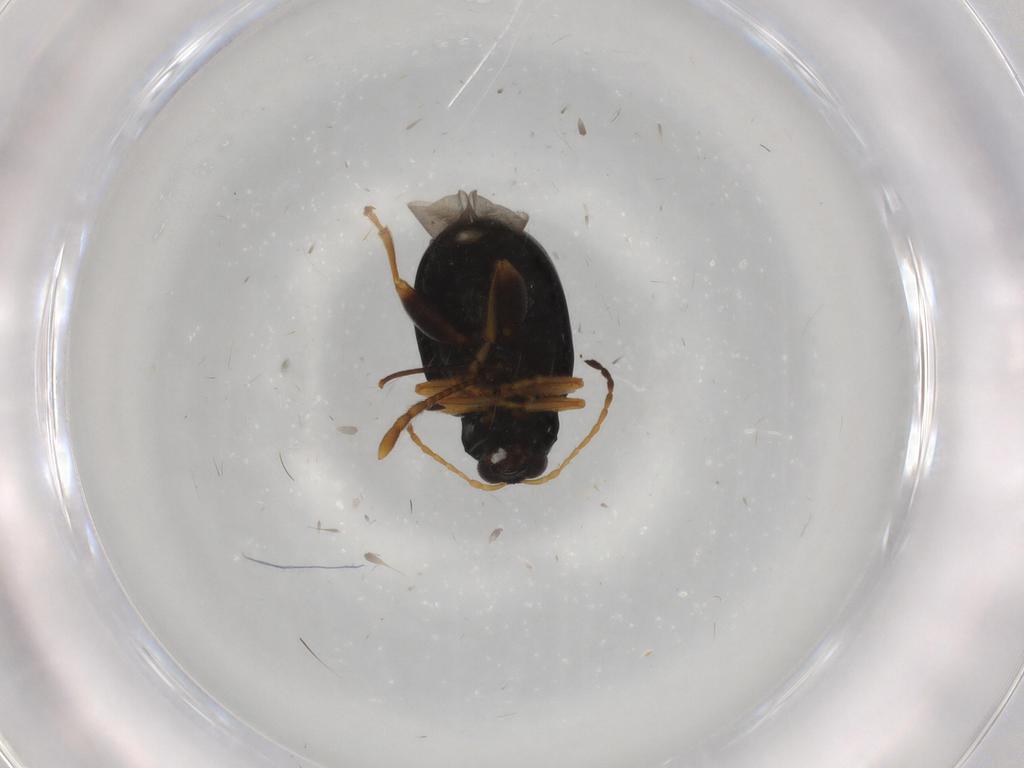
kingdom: Animalia
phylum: Arthropoda
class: Insecta
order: Coleoptera
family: Chrysomelidae
